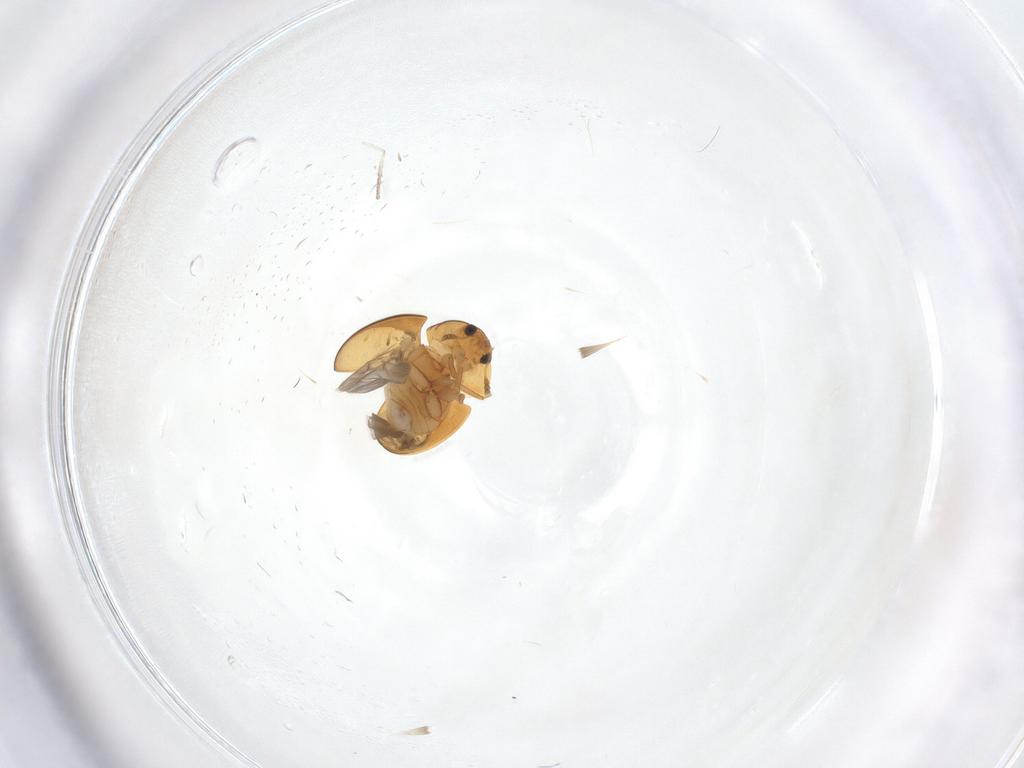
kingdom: Animalia
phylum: Arthropoda
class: Insecta
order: Coleoptera
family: Phalacridae
